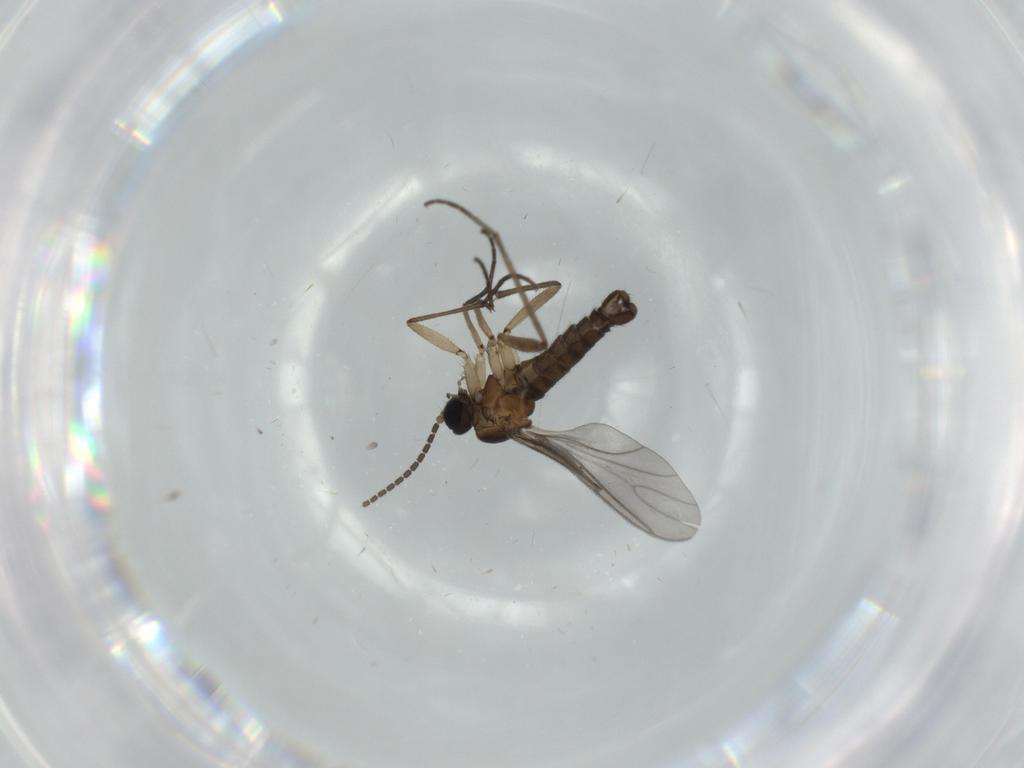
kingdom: Animalia
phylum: Arthropoda
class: Insecta
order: Diptera
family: Sciaridae
